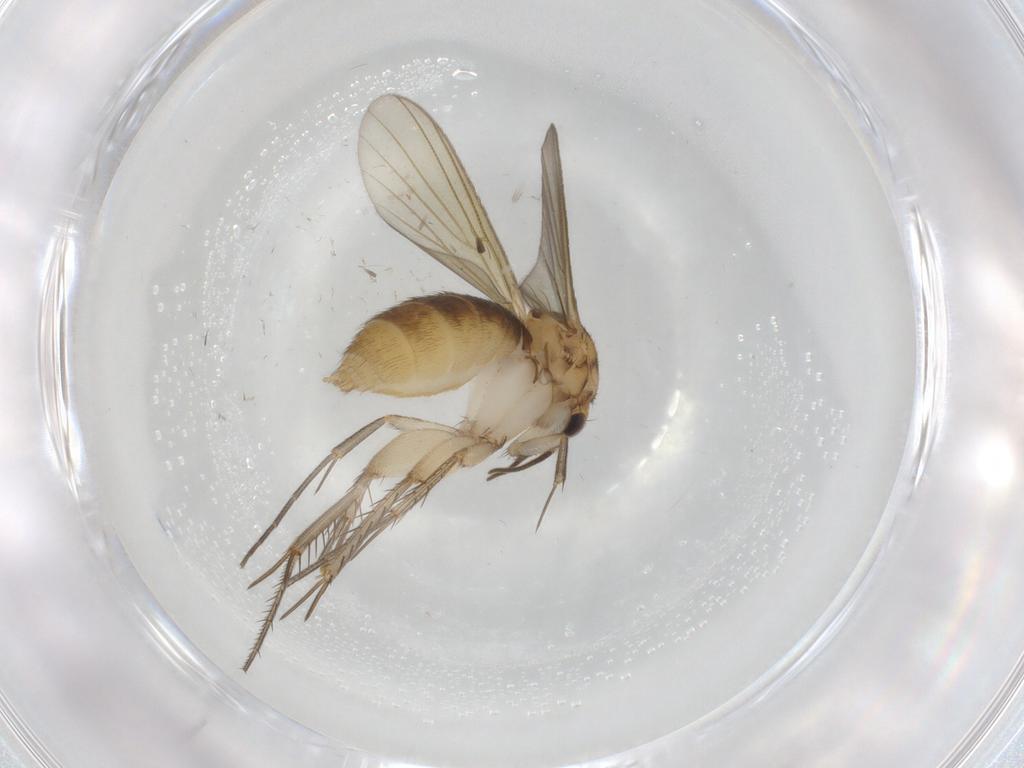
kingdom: Animalia
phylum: Arthropoda
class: Insecta
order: Diptera
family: Mycetophilidae
